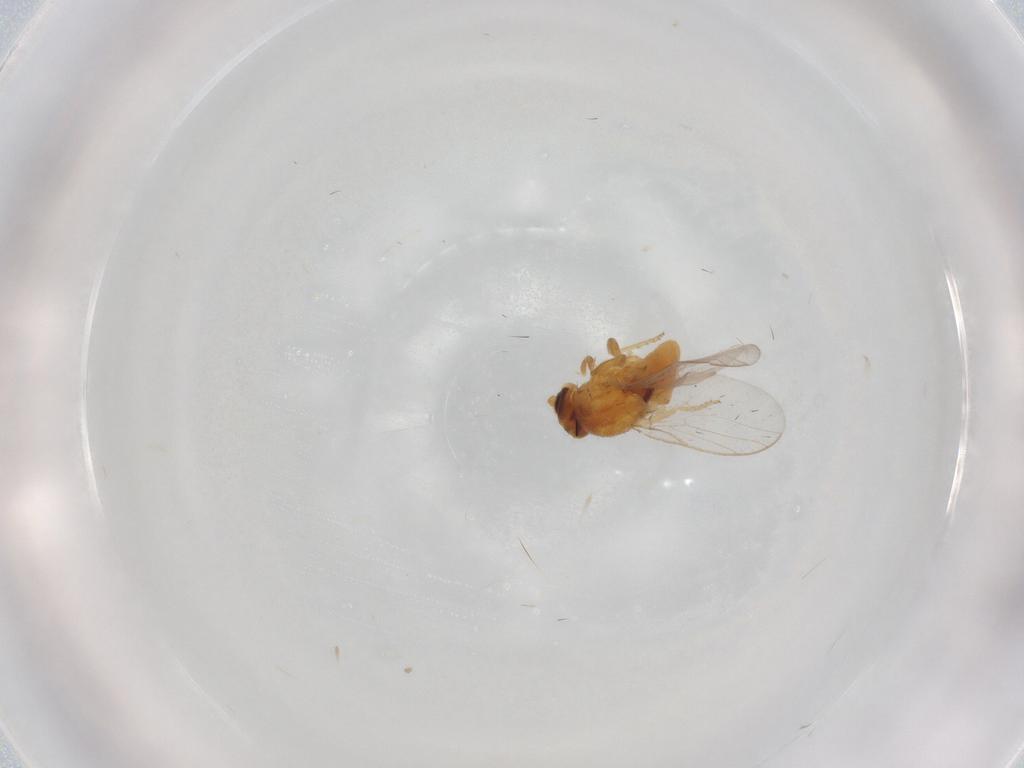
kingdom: Animalia
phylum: Arthropoda
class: Insecta
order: Diptera
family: Chloropidae
